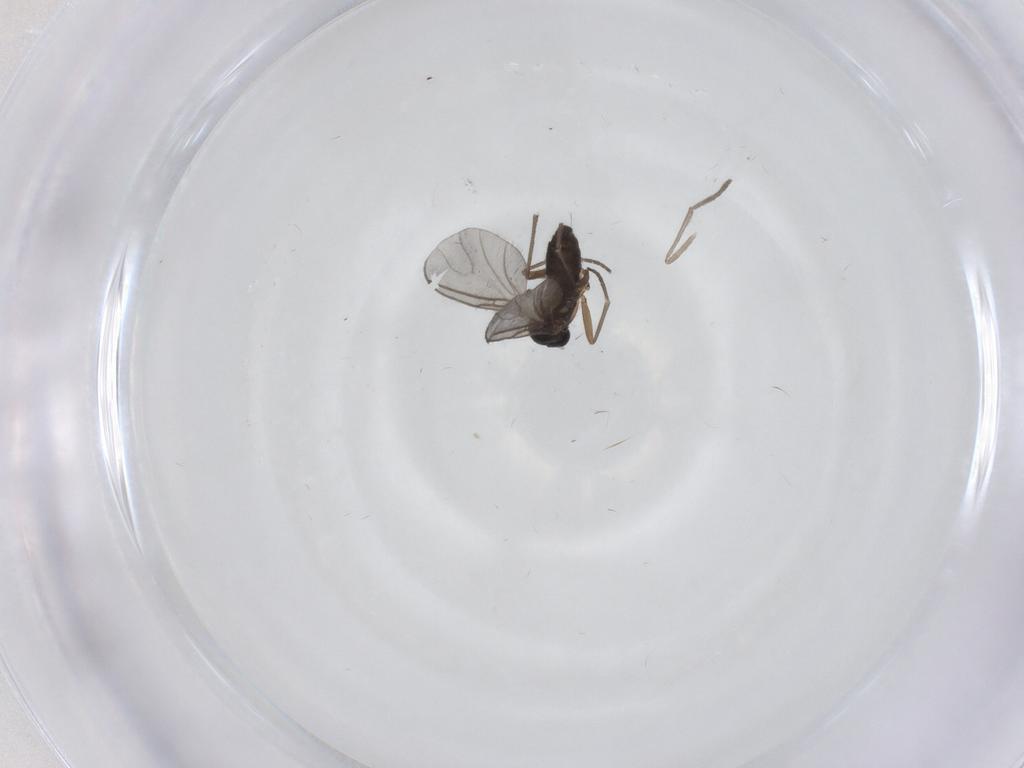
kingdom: Animalia
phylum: Arthropoda
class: Insecta
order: Diptera
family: Sciaridae
